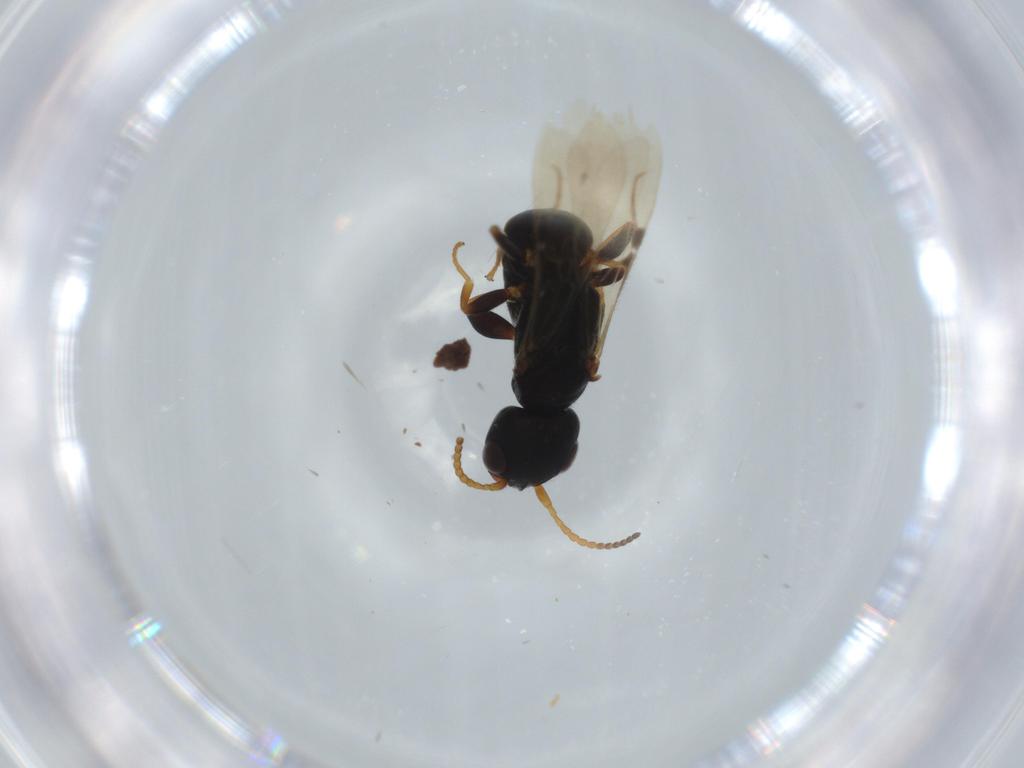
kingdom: Animalia
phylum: Arthropoda
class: Insecta
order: Hymenoptera
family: Bethylidae
